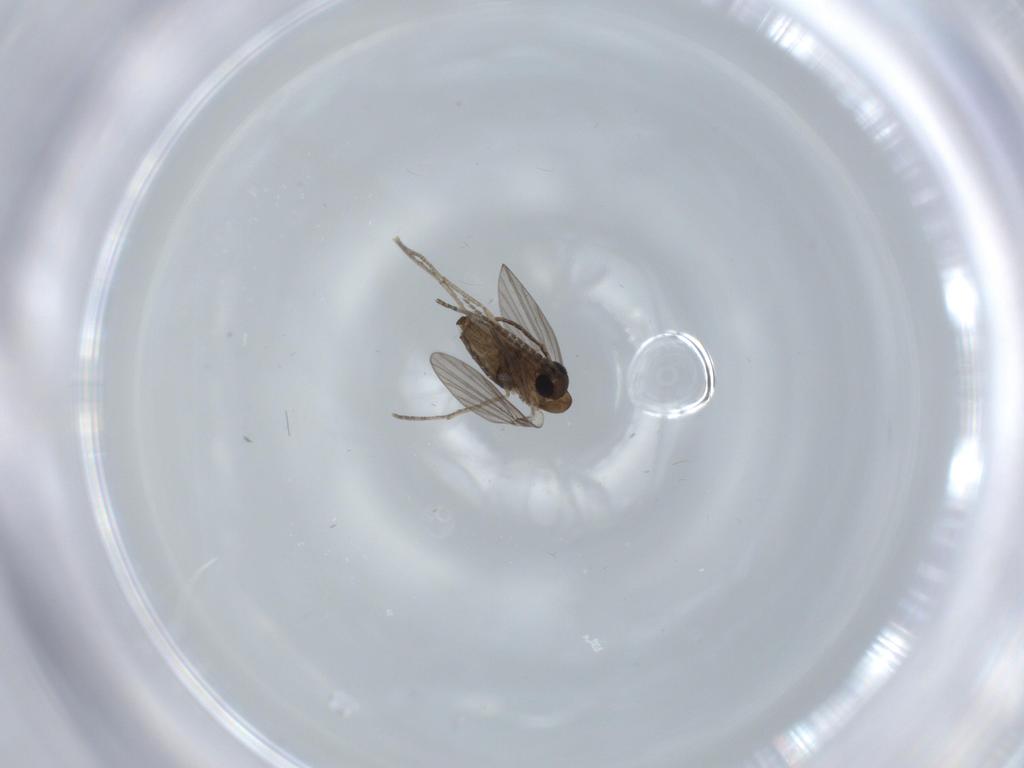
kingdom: Animalia
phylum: Arthropoda
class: Insecta
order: Diptera
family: Psychodidae
